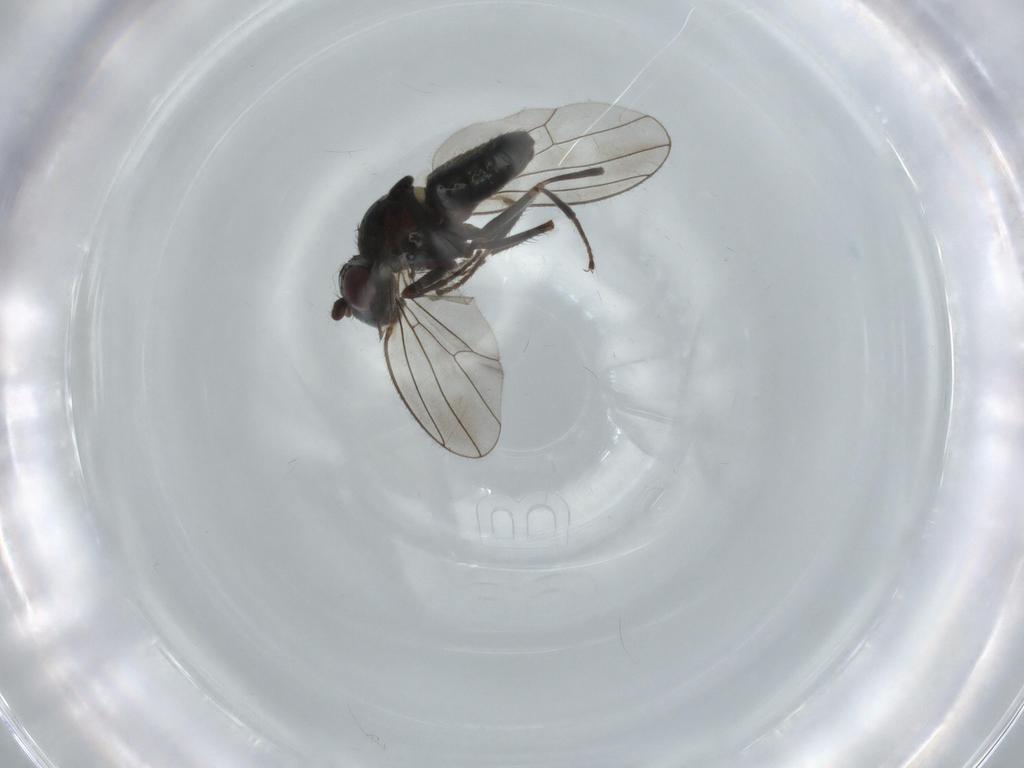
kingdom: Animalia
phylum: Arthropoda
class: Insecta
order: Diptera
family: Ephydridae
